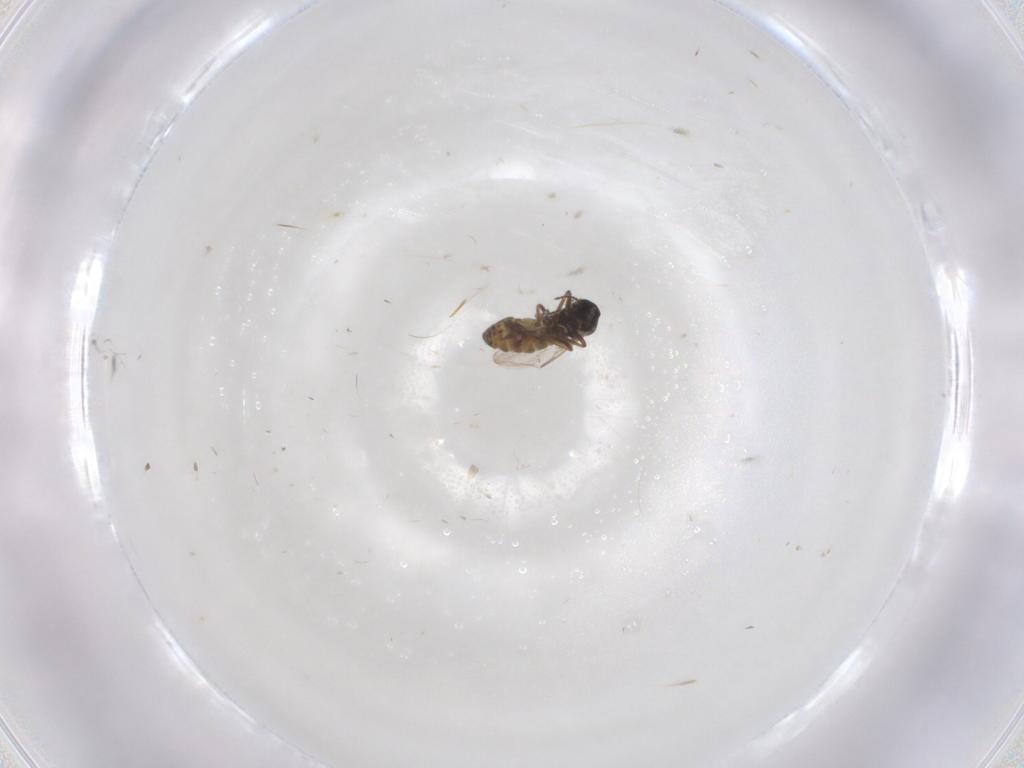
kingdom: Animalia
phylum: Arthropoda
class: Insecta
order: Diptera
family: Ceratopogonidae
